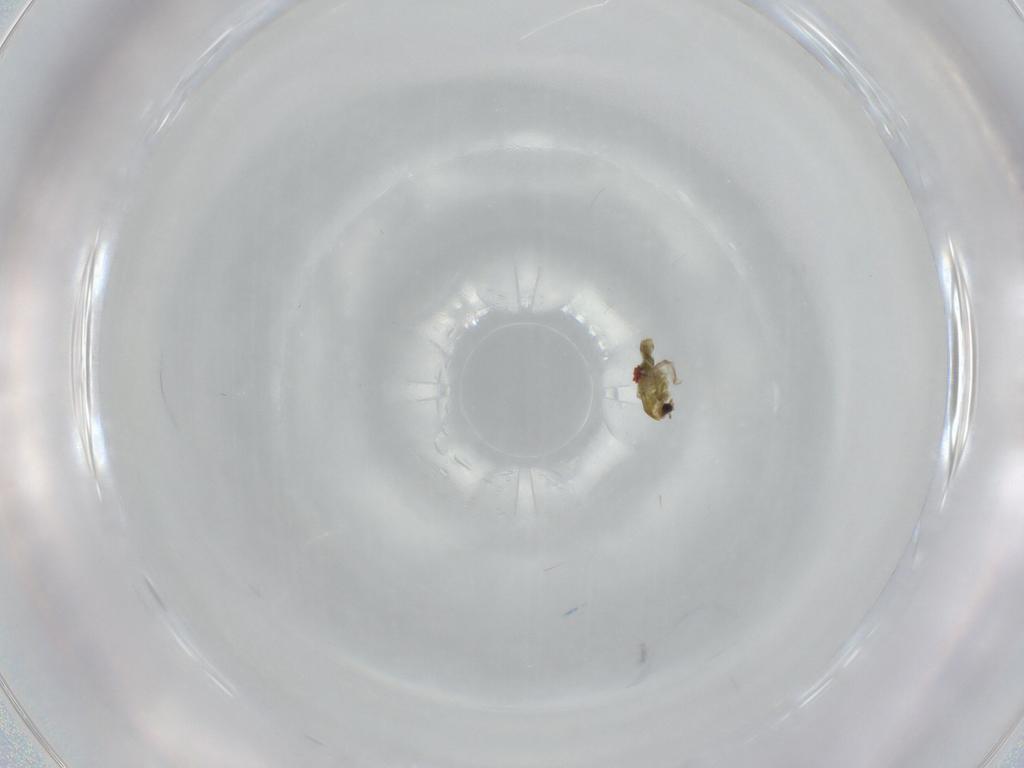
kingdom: Animalia
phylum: Arthropoda
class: Insecta
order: Diptera
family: Chironomidae
